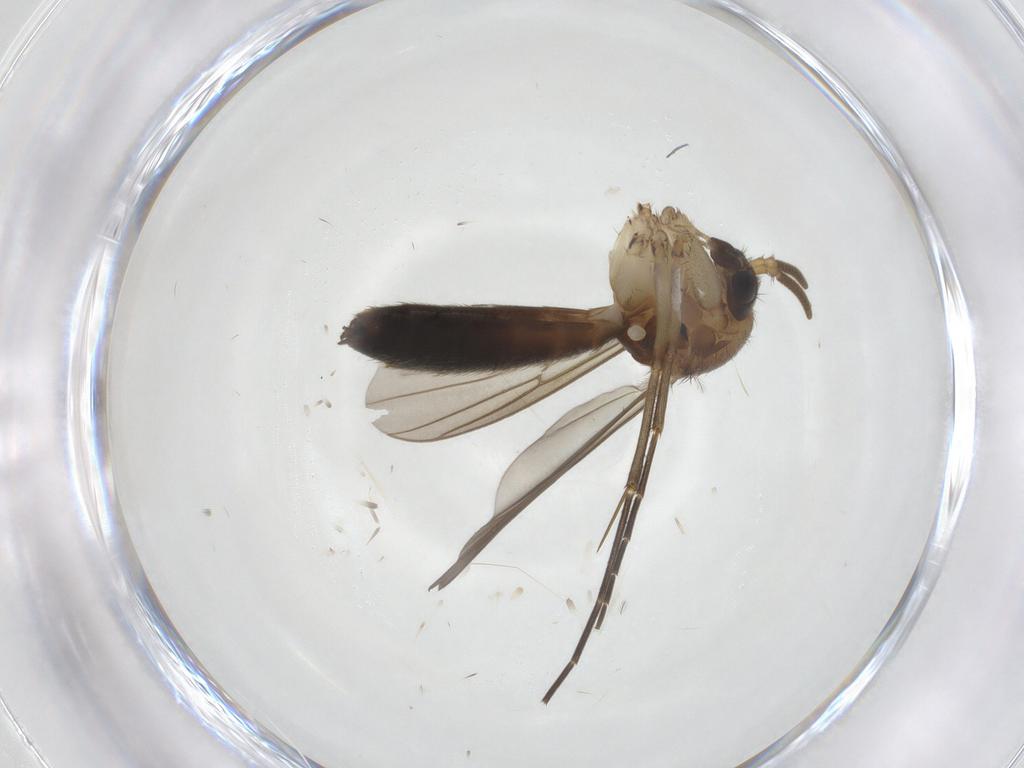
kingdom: Animalia
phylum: Arthropoda
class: Insecta
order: Diptera
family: Mycetophilidae
